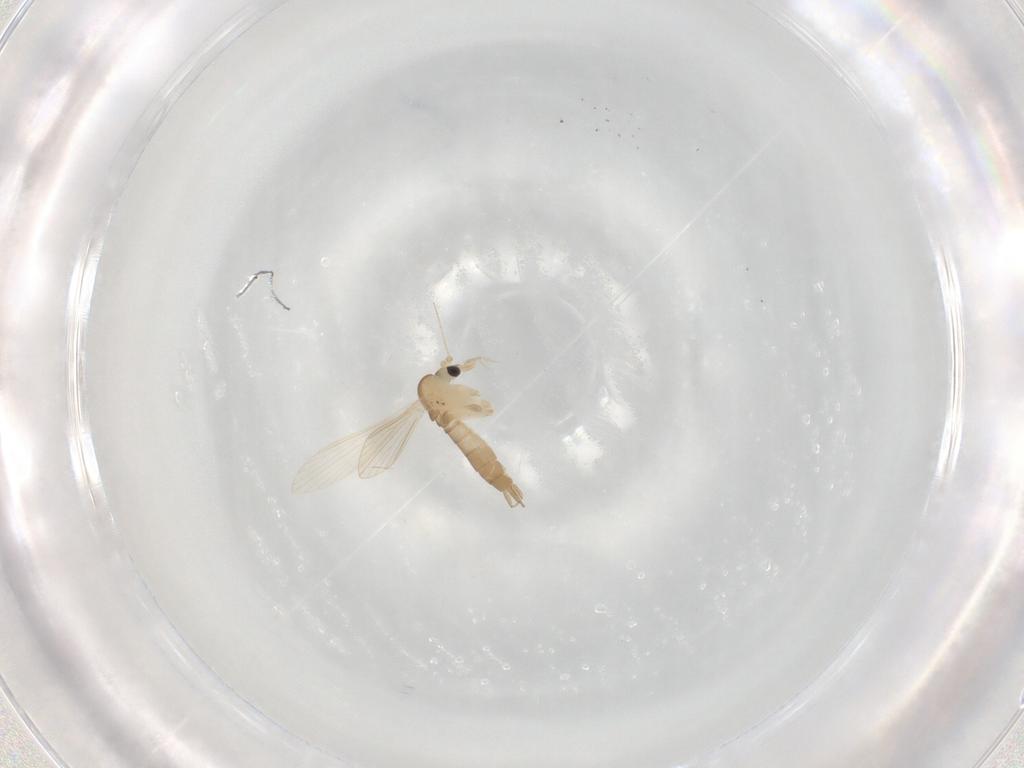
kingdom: Animalia
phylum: Arthropoda
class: Insecta
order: Diptera
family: Psychodidae
